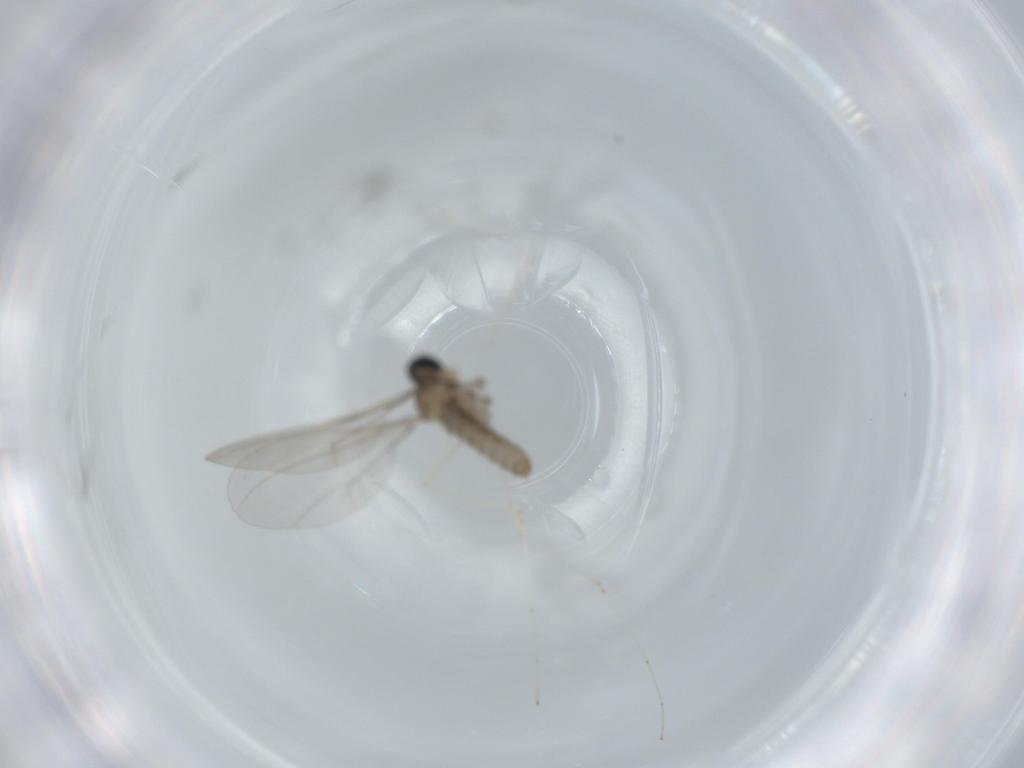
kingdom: Animalia
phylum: Arthropoda
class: Insecta
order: Diptera
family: Cecidomyiidae
